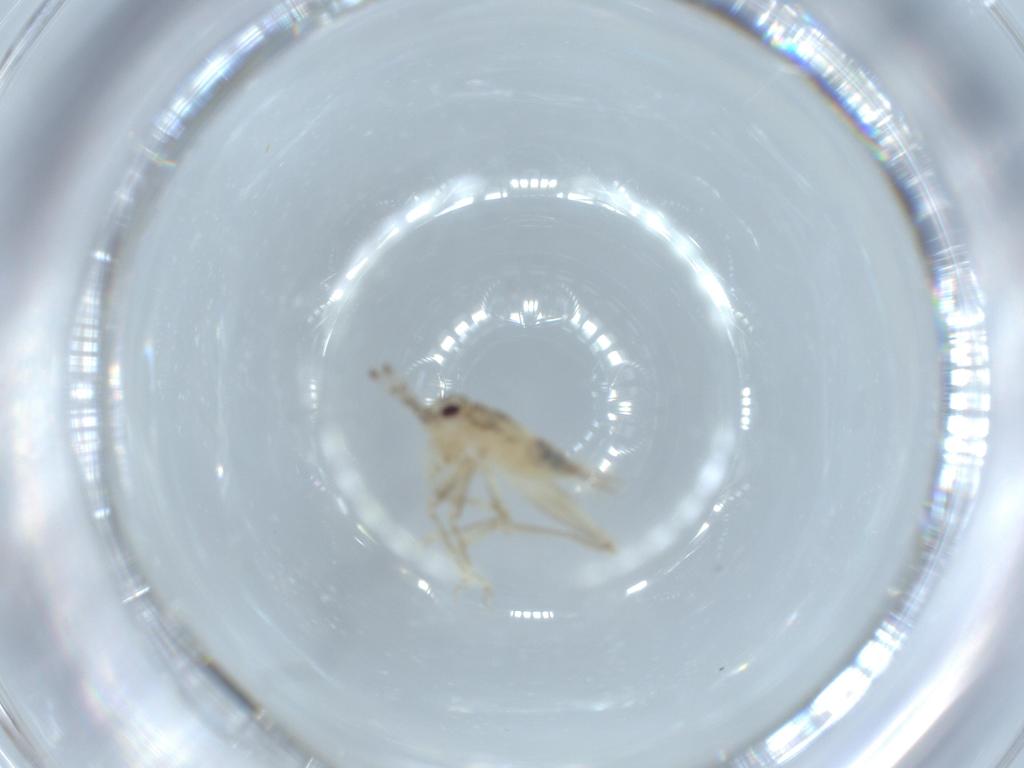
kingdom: Animalia
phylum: Arthropoda
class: Insecta
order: Orthoptera
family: Trigonidiidae
